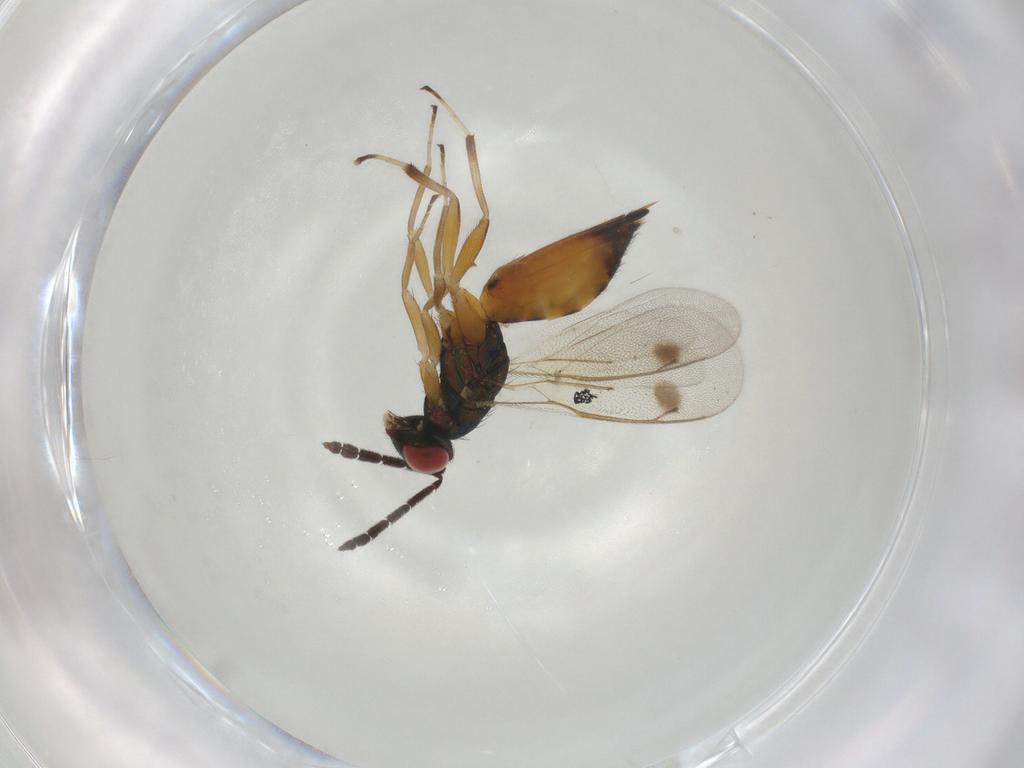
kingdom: Animalia
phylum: Arthropoda
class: Insecta
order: Hymenoptera
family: Eulophidae
